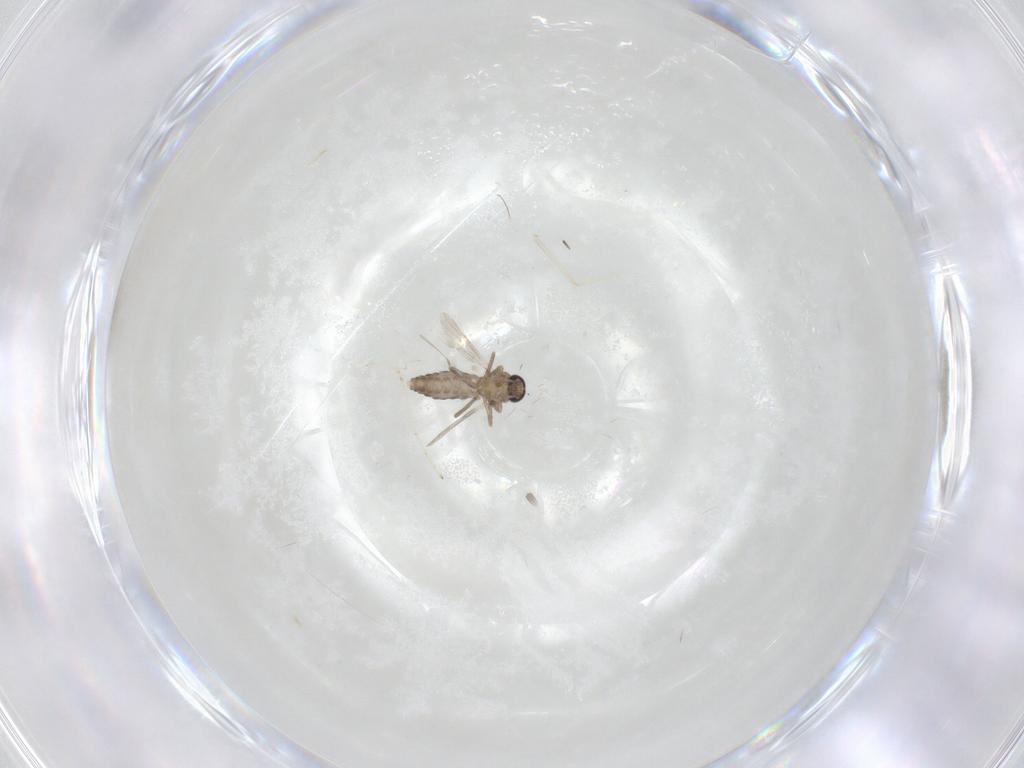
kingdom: Animalia
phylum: Arthropoda
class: Insecta
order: Diptera
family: Ceratopogonidae
